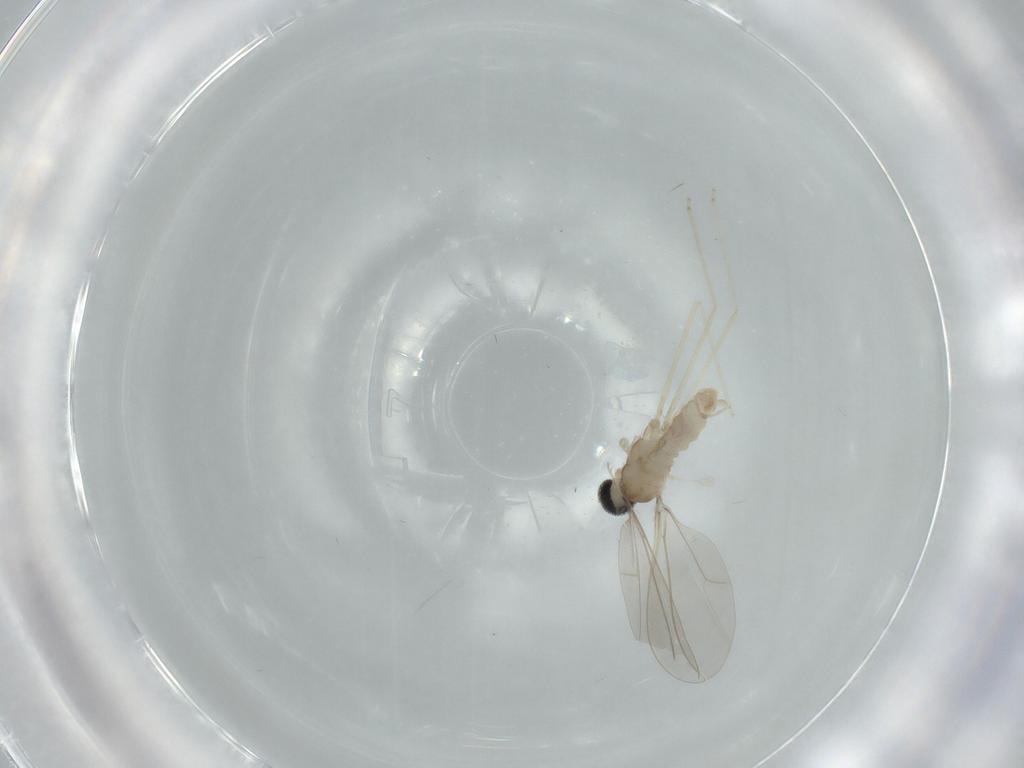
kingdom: Animalia
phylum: Arthropoda
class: Insecta
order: Diptera
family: Cecidomyiidae
